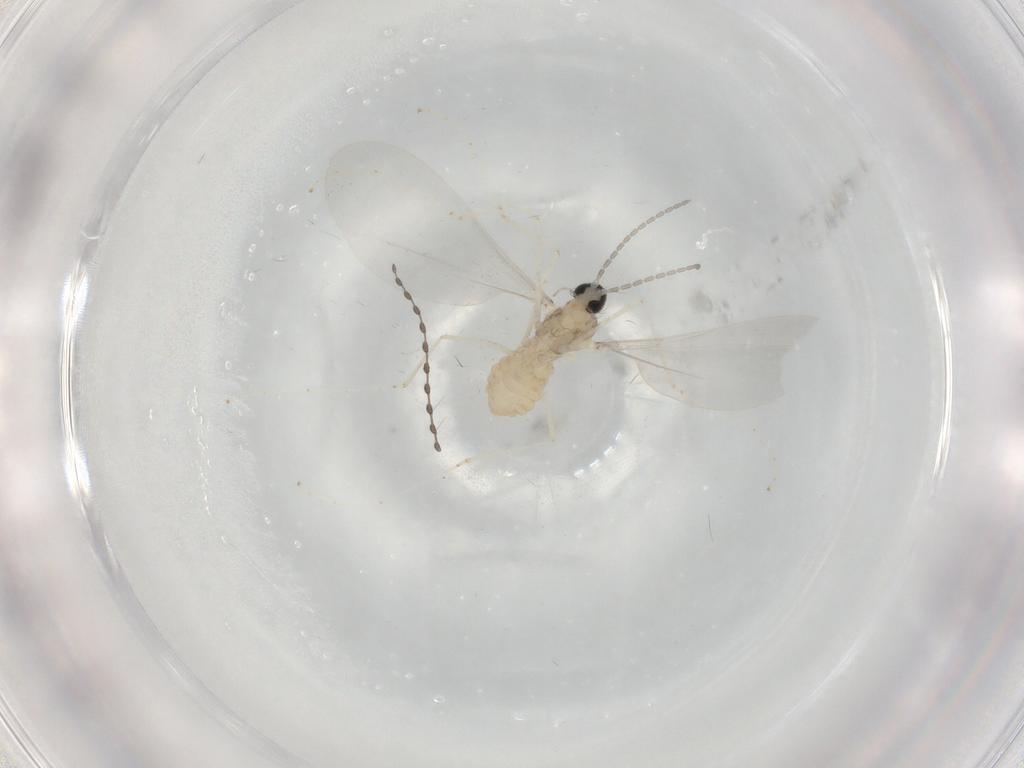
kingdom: Animalia
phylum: Arthropoda
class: Insecta
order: Diptera
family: Cecidomyiidae
